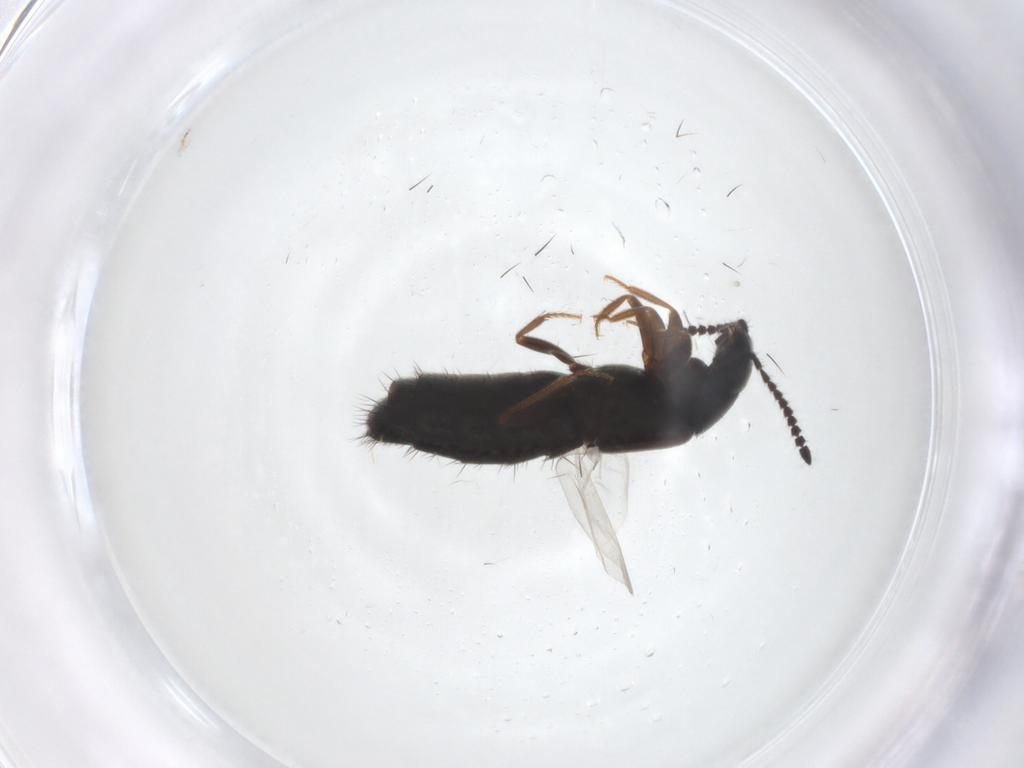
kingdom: Animalia
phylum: Arthropoda
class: Insecta
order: Coleoptera
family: Staphylinidae
